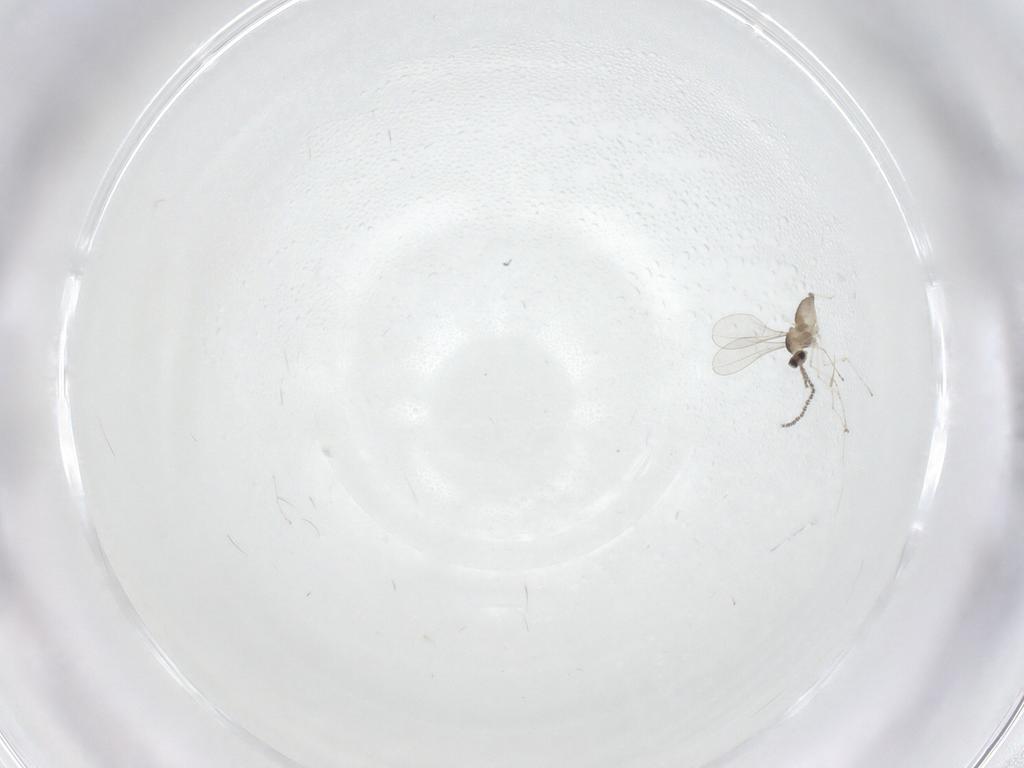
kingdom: Animalia
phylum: Arthropoda
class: Insecta
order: Diptera
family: Cecidomyiidae
